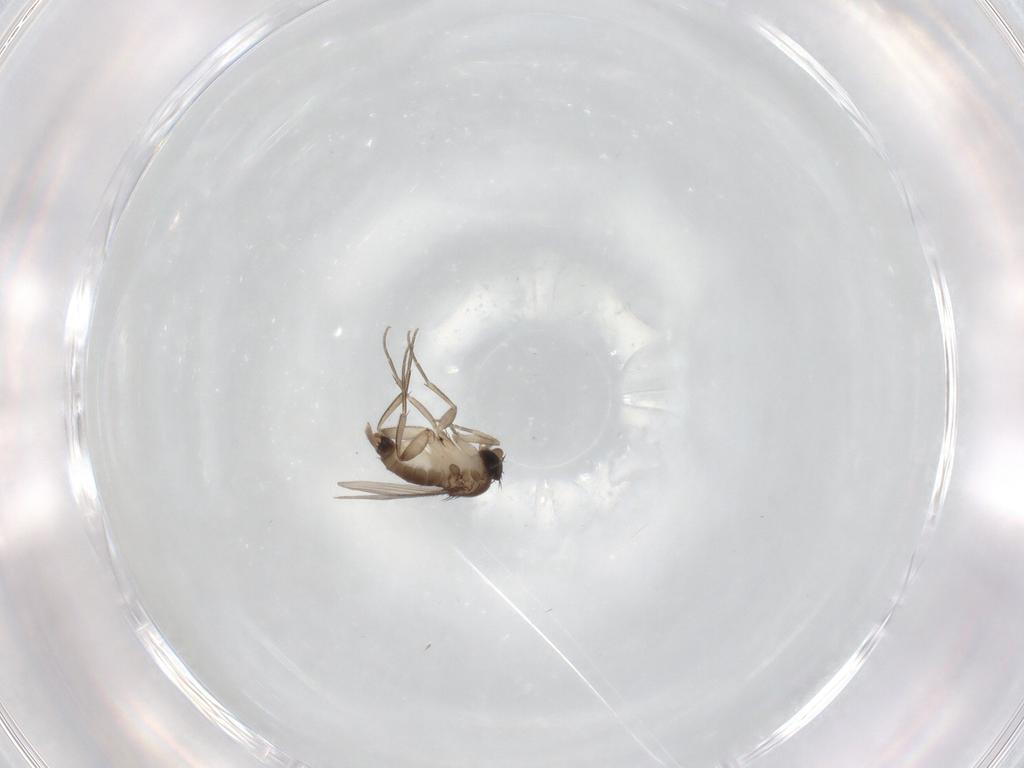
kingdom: Animalia
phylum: Arthropoda
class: Insecta
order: Diptera
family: Phoridae
